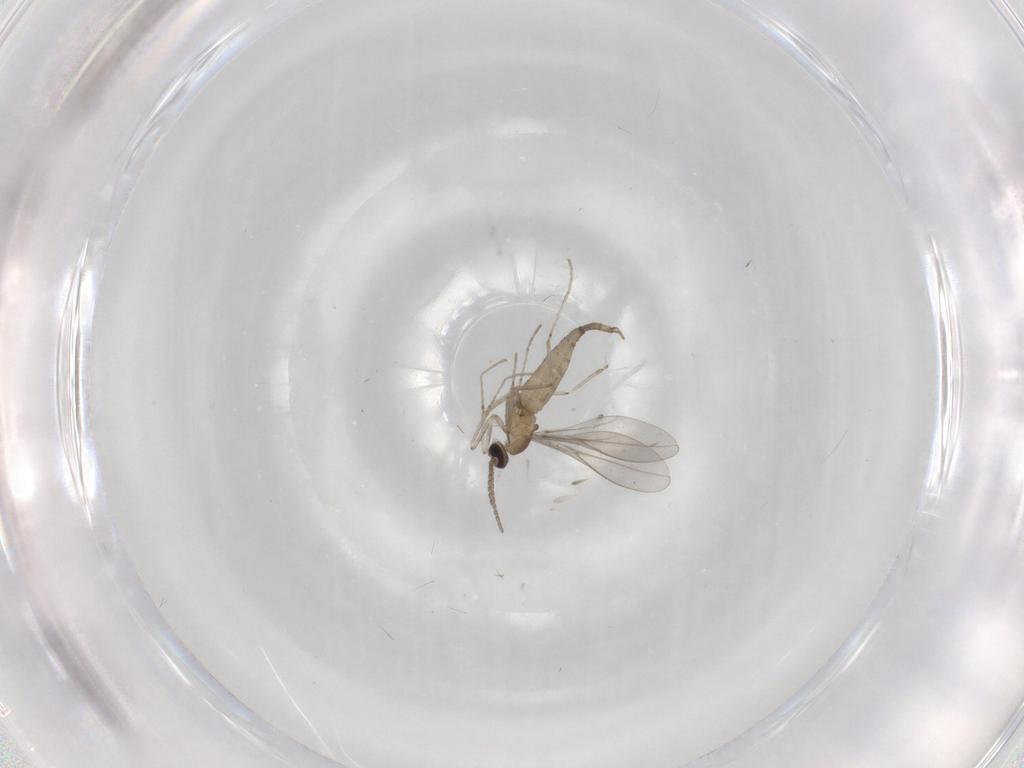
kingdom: Animalia
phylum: Arthropoda
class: Insecta
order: Diptera
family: Cecidomyiidae
